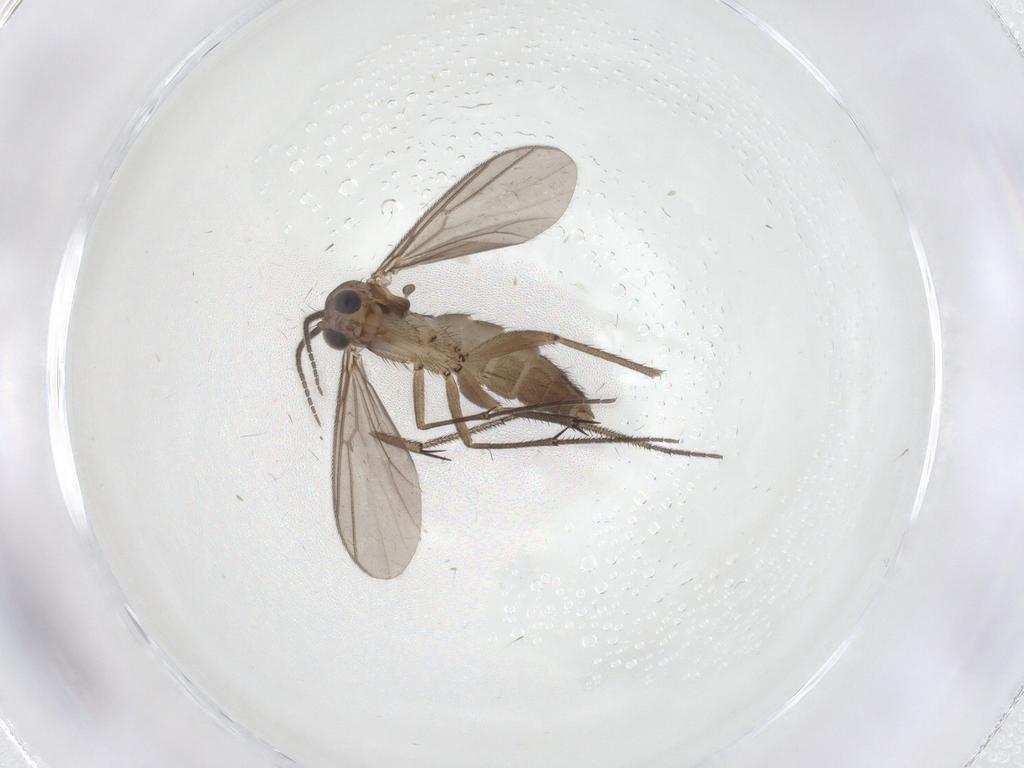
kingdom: Animalia
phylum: Arthropoda
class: Insecta
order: Diptera
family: Mycetophilidae
